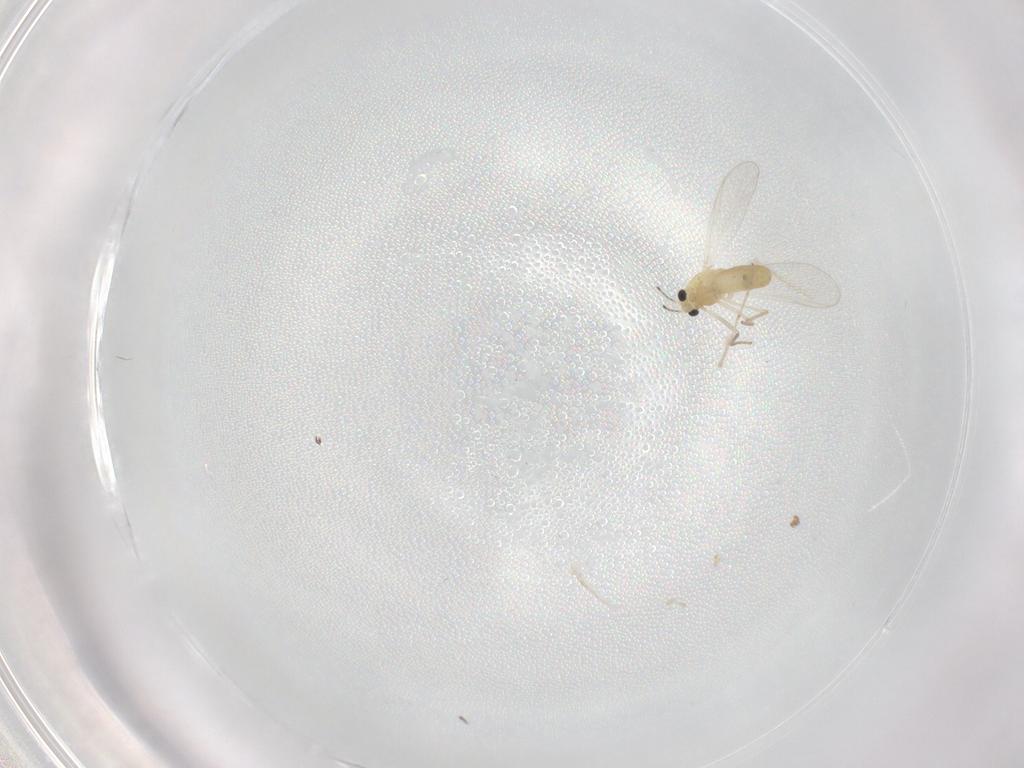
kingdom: Animalia
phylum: Arthropoda
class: Insecta
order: Diptera
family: Chironomidae
